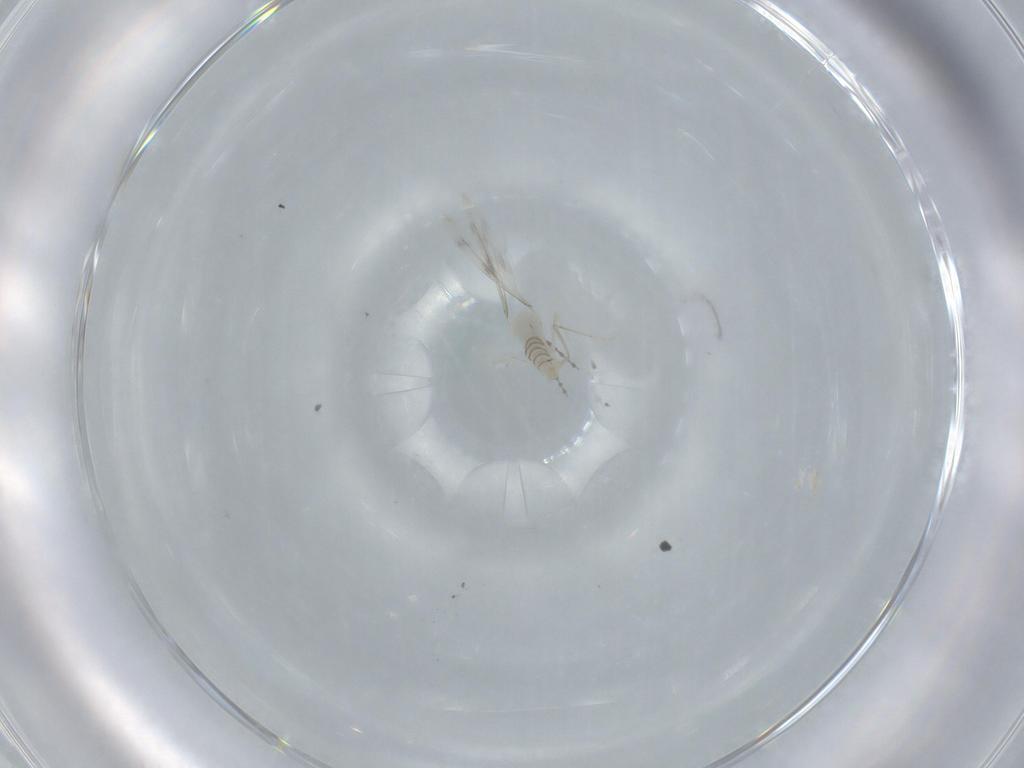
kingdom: Animalia
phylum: Arthropoda
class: Insecta
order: Diptera
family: Cecidomyiidae
